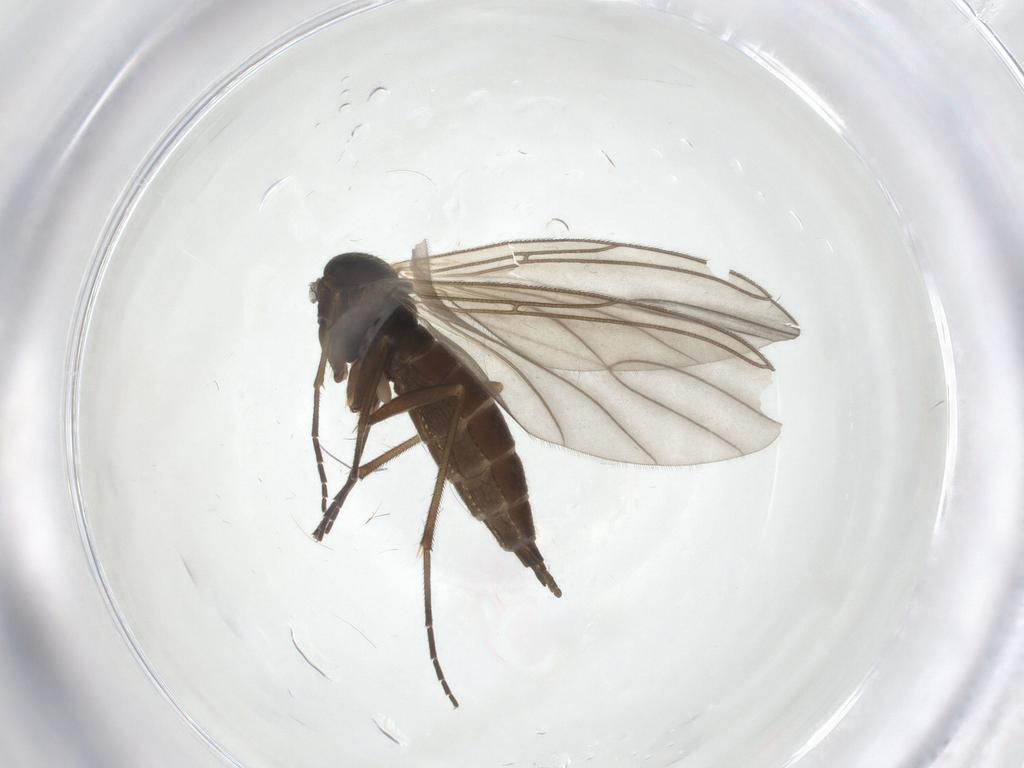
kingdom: Animalia
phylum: Arthropoda
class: Insecta
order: Diptera
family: Sciaridae
